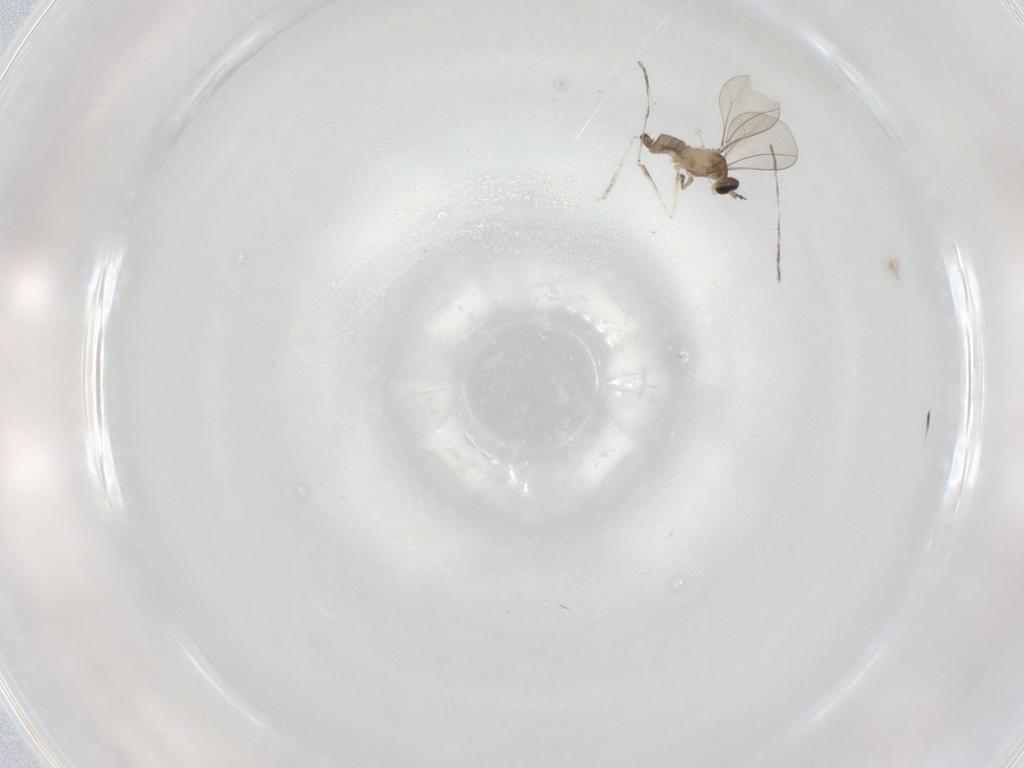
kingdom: Animalia
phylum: Arthropoda
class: Insecta
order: Diptera
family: Cecidomyiidae
